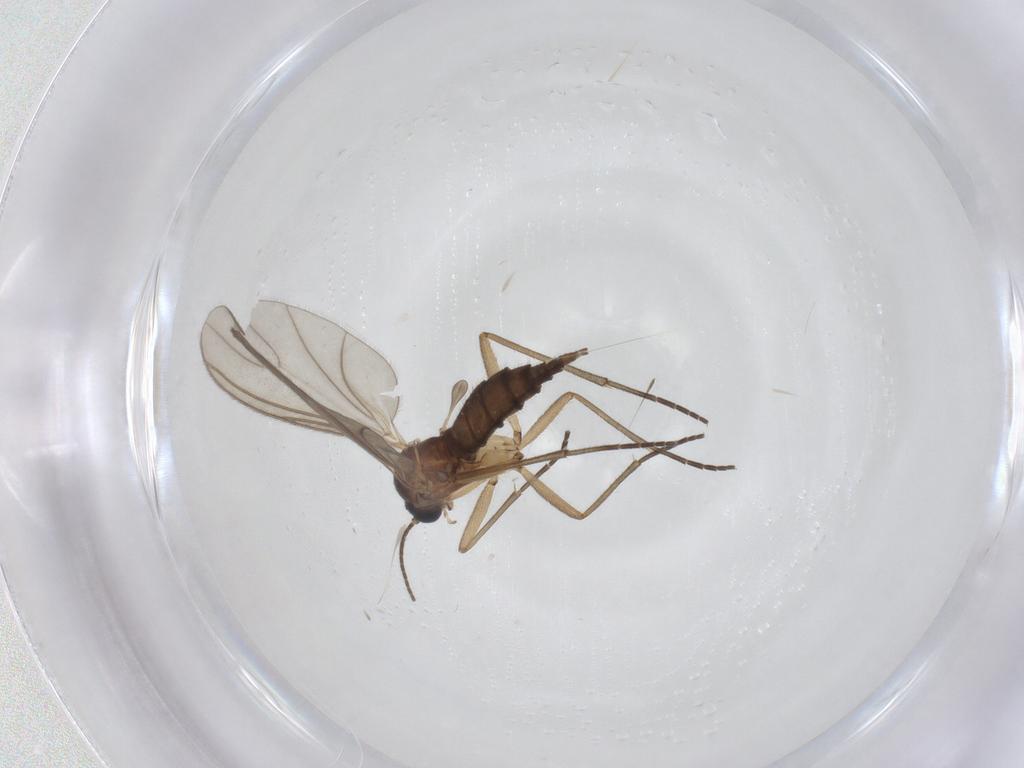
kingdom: Animalia
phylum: Arthropoda
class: Insecta
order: Diptera
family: Sciaridae
